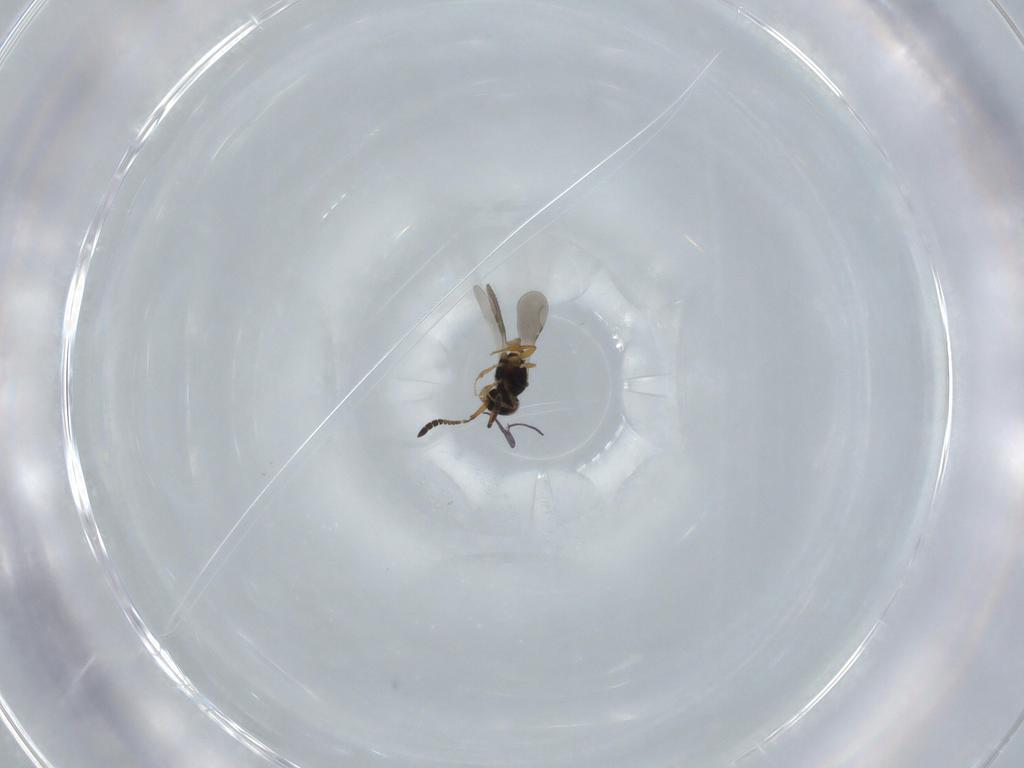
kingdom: Animalia
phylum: Arthropoda
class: Insecta
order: Hymenoptera
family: Ceraphronidae
